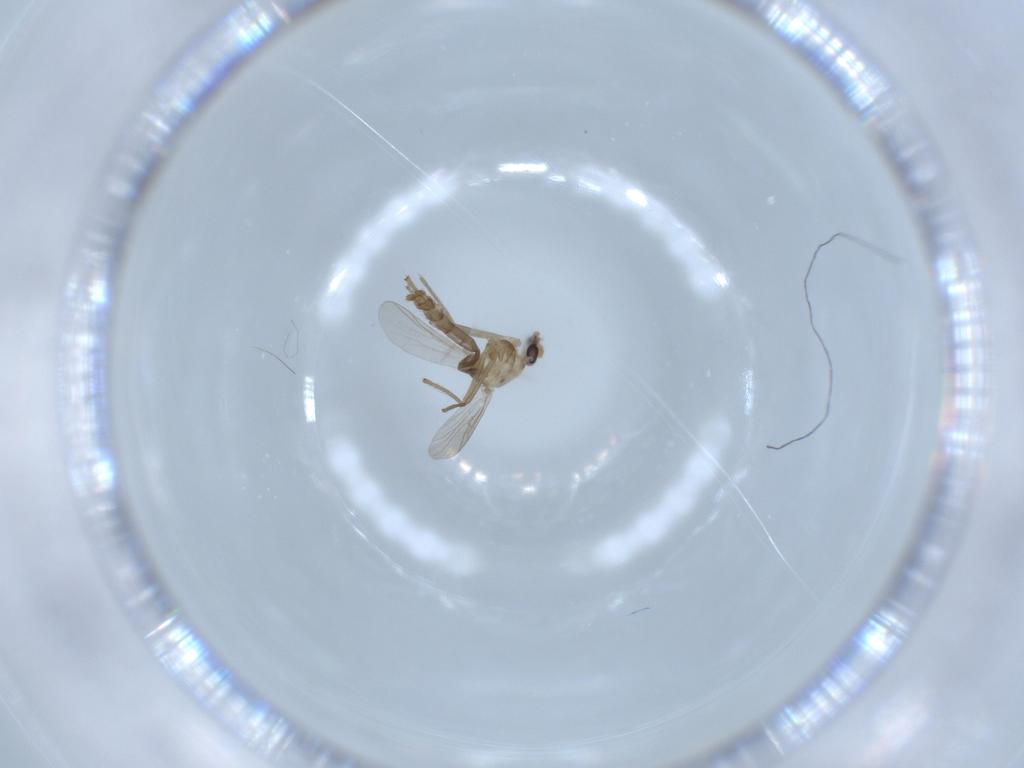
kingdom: Animalia
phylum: Arthropoda
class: Insecta
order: Diptera
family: Chironomidae
